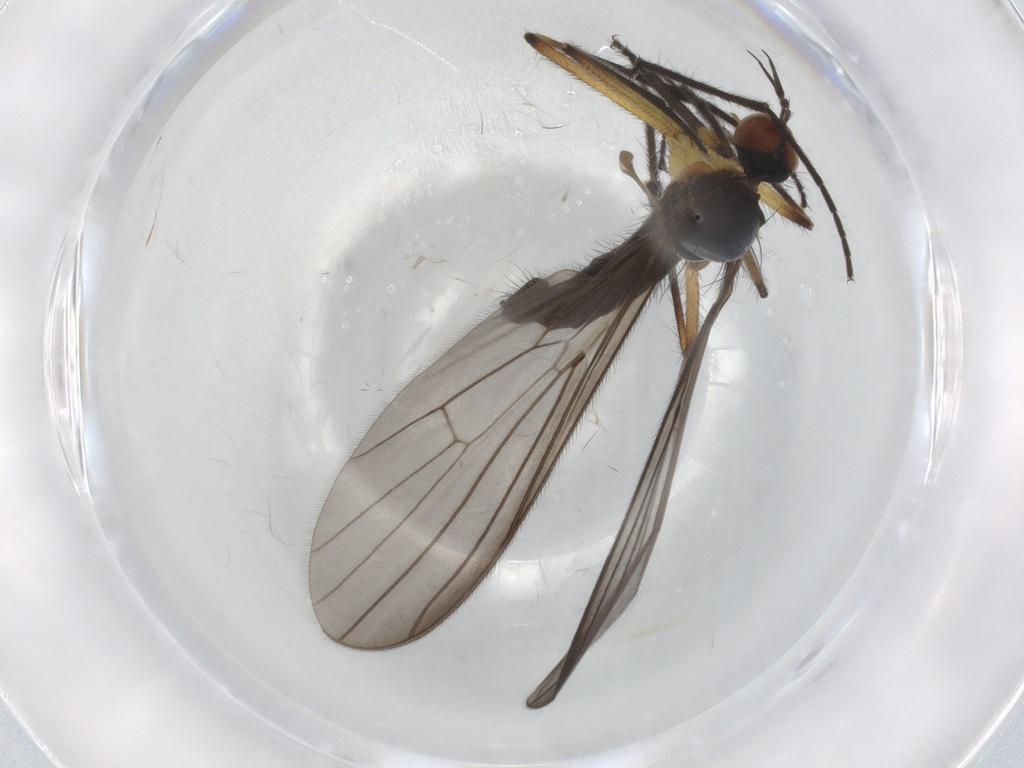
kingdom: Animalia
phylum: Arthropoda
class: Insecta
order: Diptera
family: Empididae
